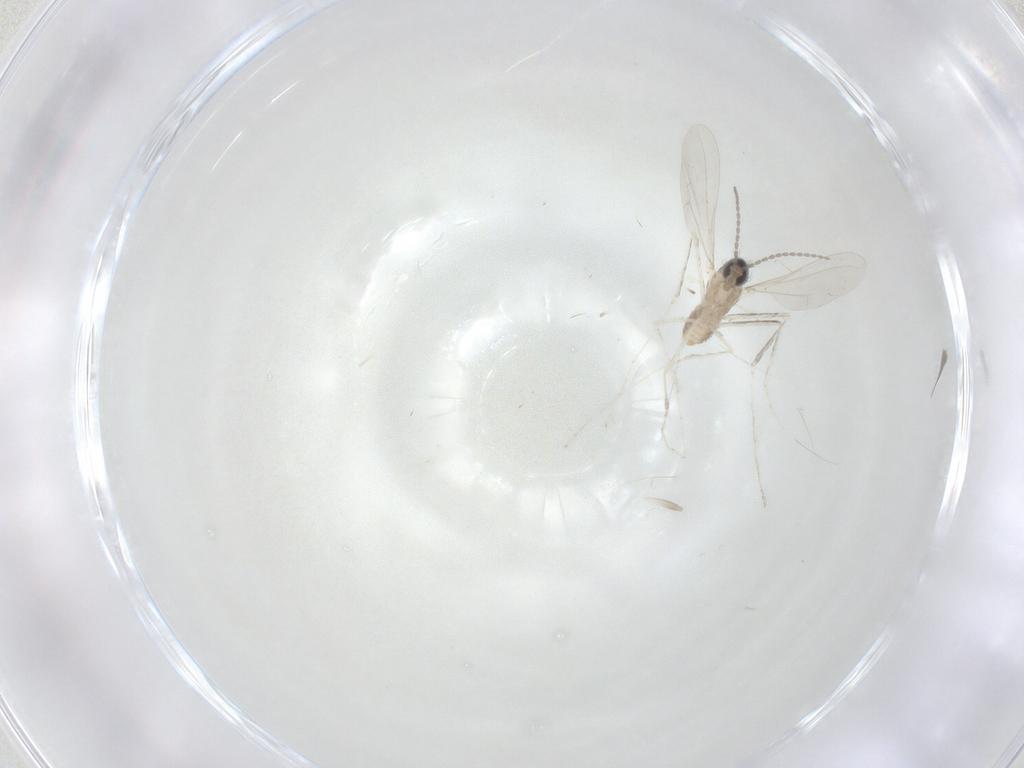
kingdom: Animalia
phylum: Arthropoda
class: Insecta
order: Diptera
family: Cecidomyiidae
